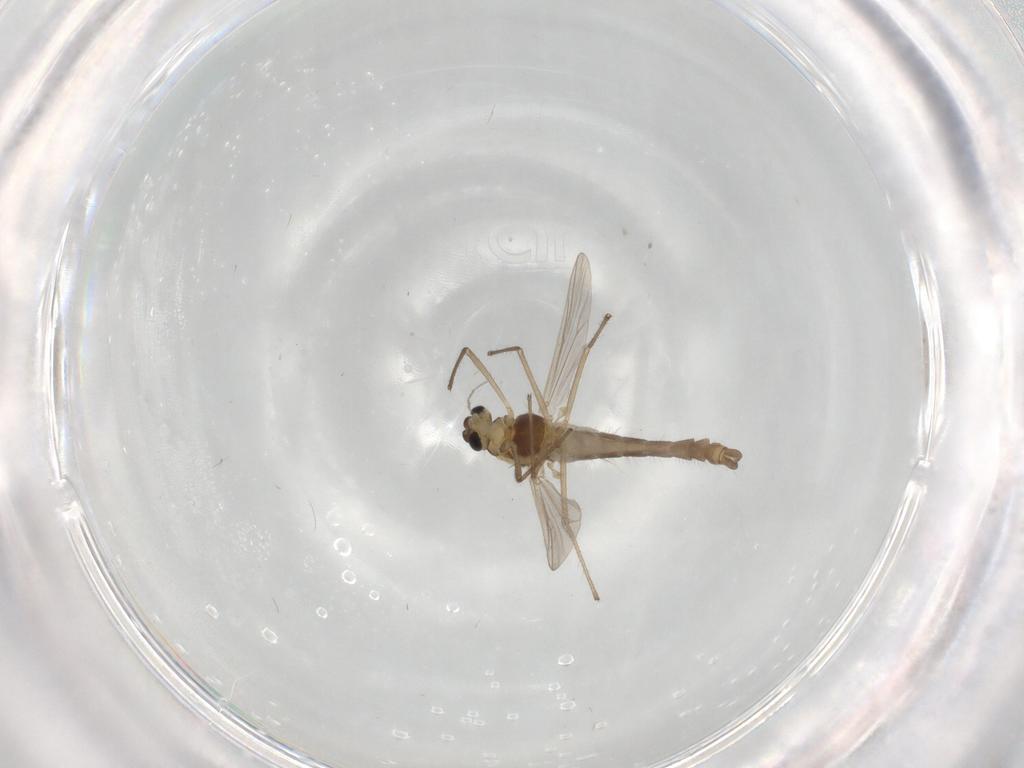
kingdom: Animalia
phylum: Arthropoda
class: Insecta
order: Diptera
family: Chironomidae
